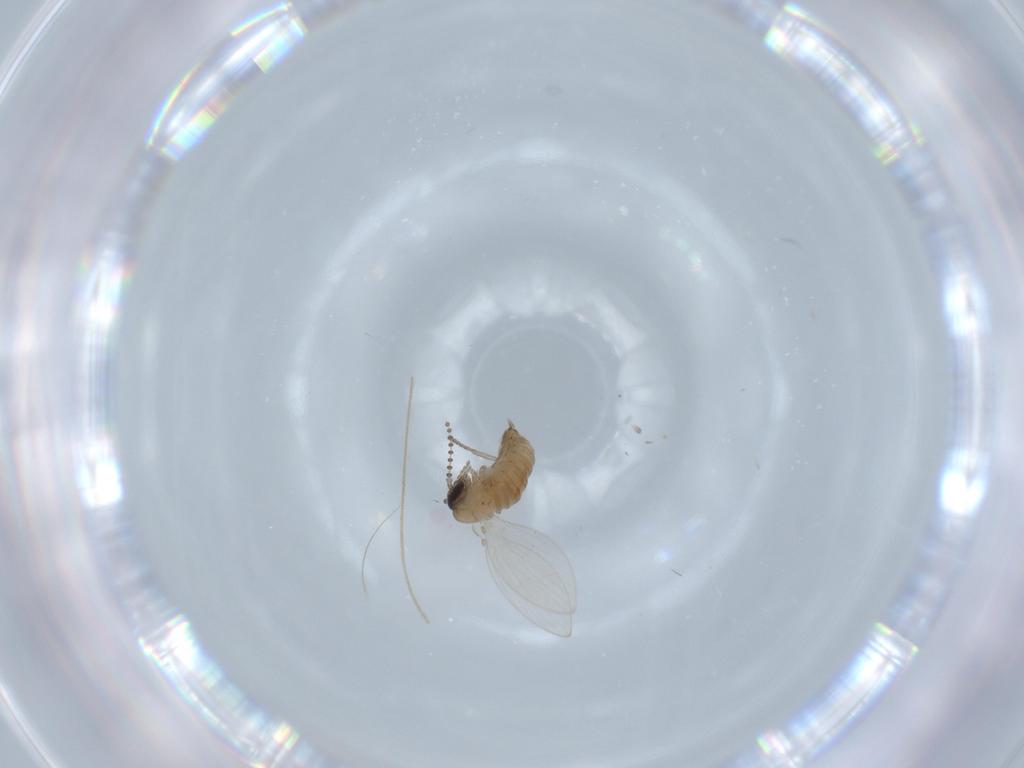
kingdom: Animalia
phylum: Arthropoda
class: Insecta
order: Diptera
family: Psychodidae
